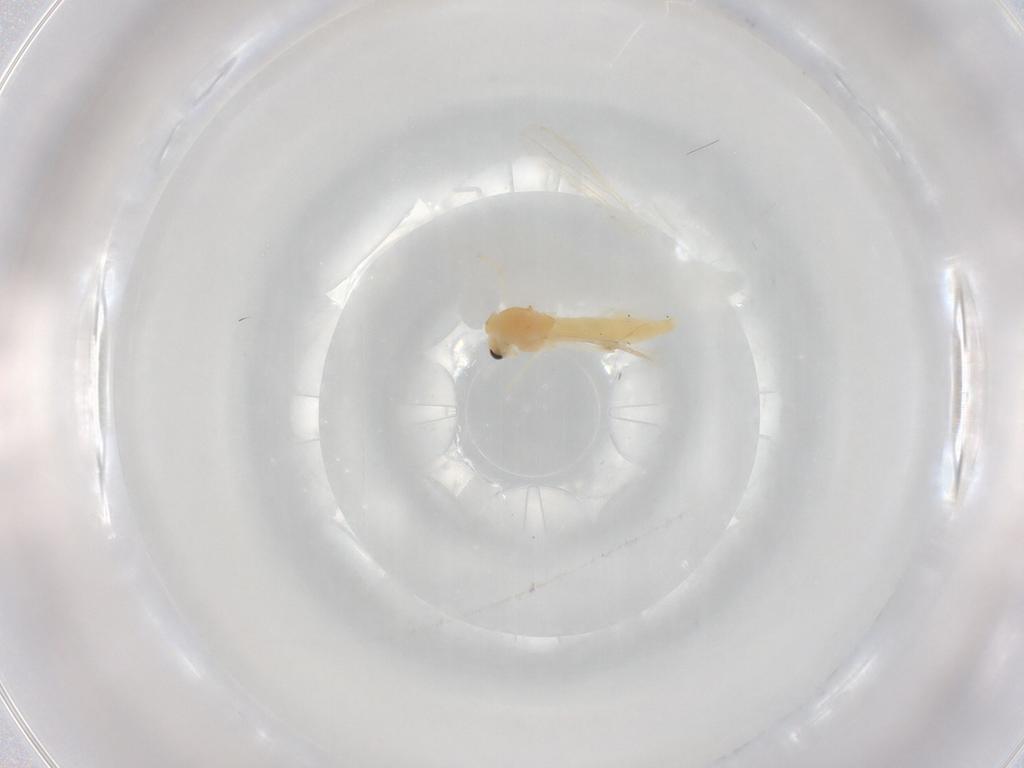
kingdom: Animalia
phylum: Arthropoda
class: Insecta
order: Diptera
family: Chironomidae
